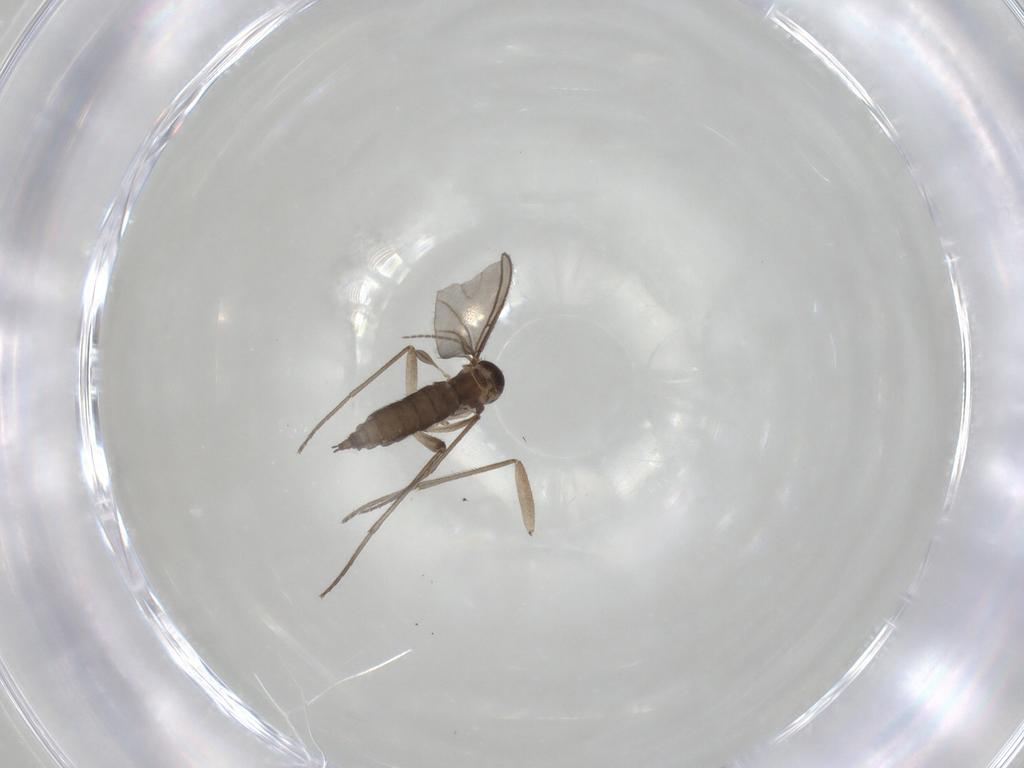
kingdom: Animalia
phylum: Arthropoda
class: Insecta
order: Diptera
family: Sciaridae
